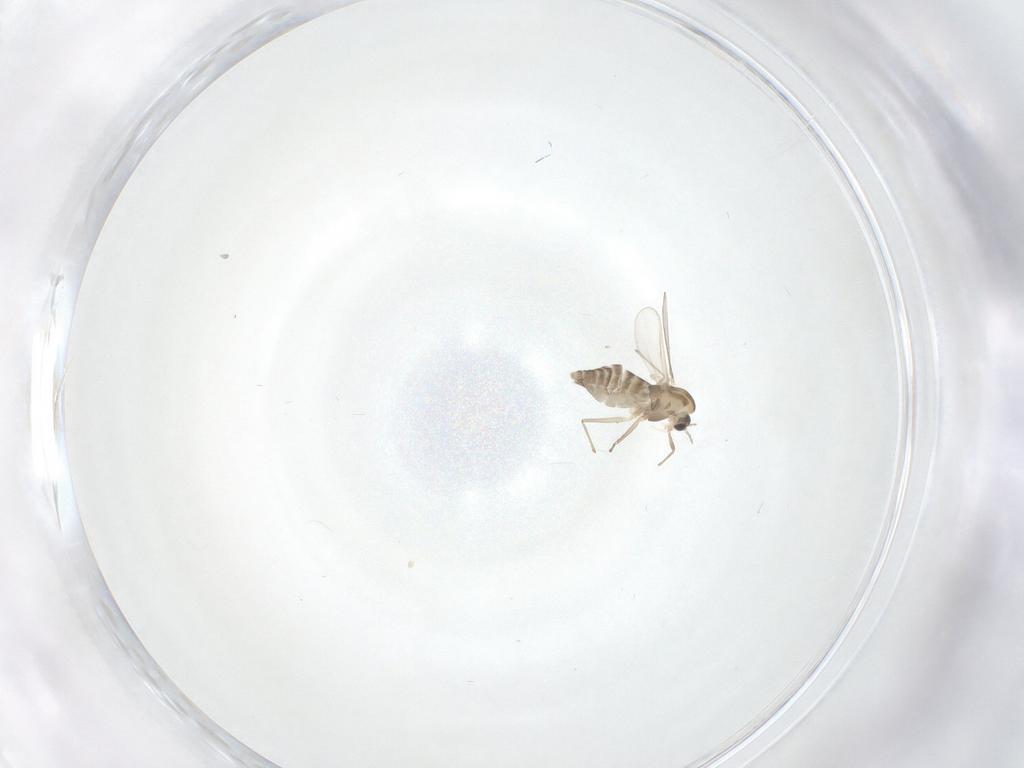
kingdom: Animalia
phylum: Arthropoda
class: Insecta
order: Diptera
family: Chironomidae
